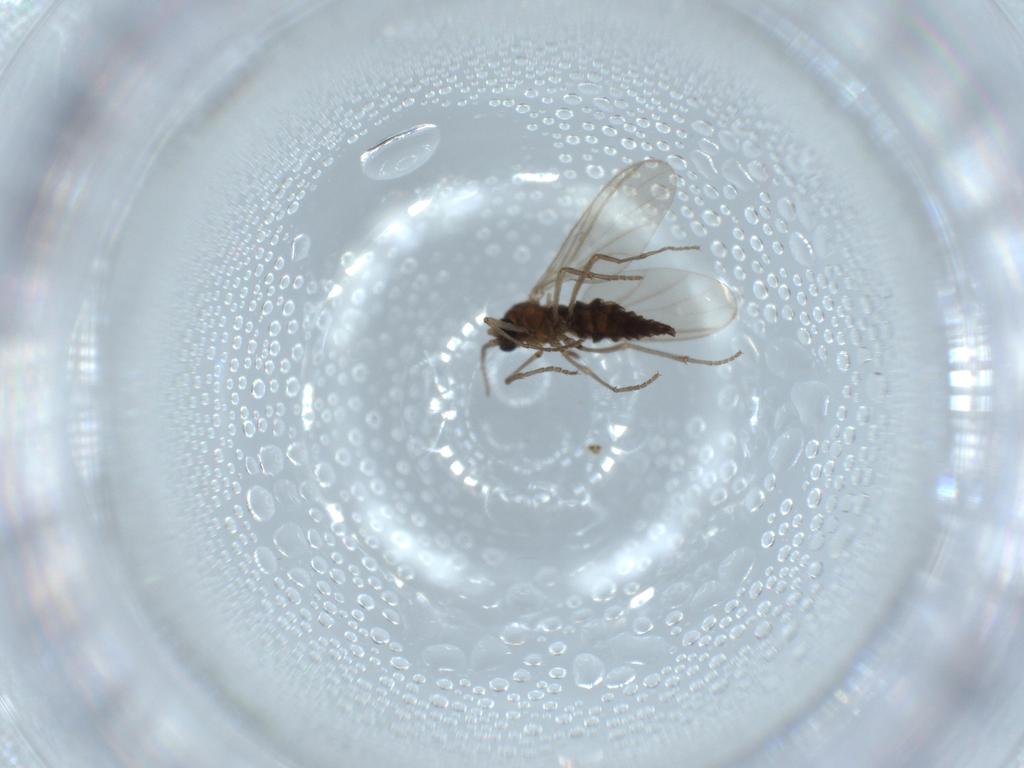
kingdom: Animalia
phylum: Arthropoda
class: Insecta
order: Diptera
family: Sciaridae
